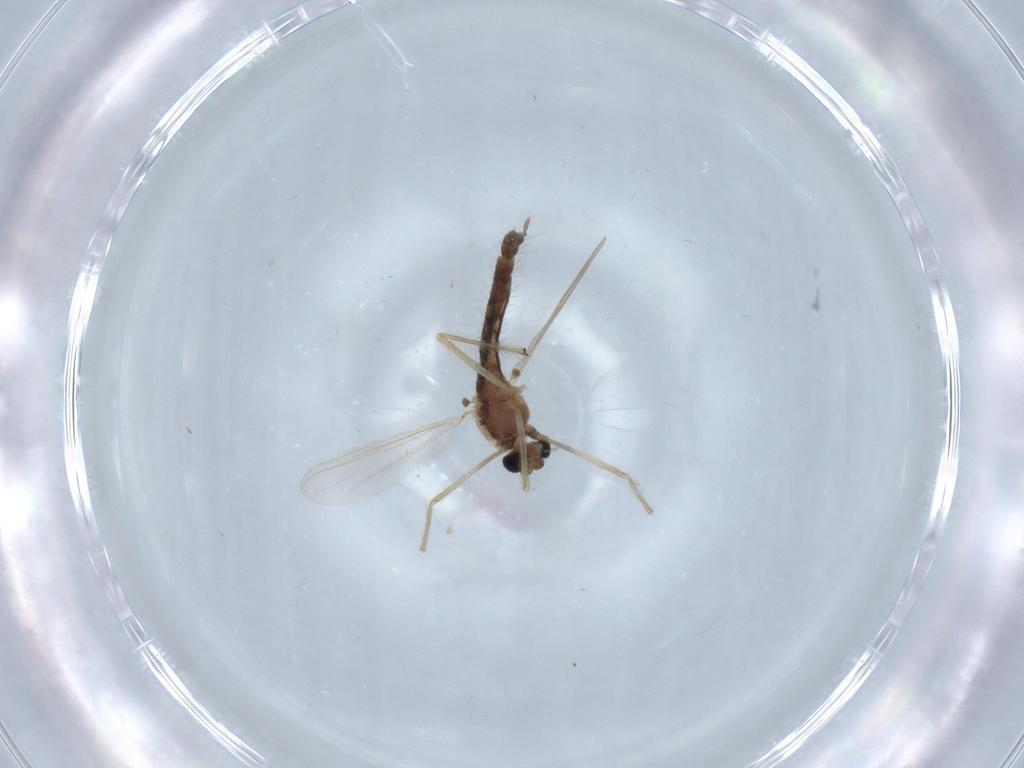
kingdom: Animalia
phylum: Arthropoda
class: Insecta
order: Diptera
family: Chironomidae
